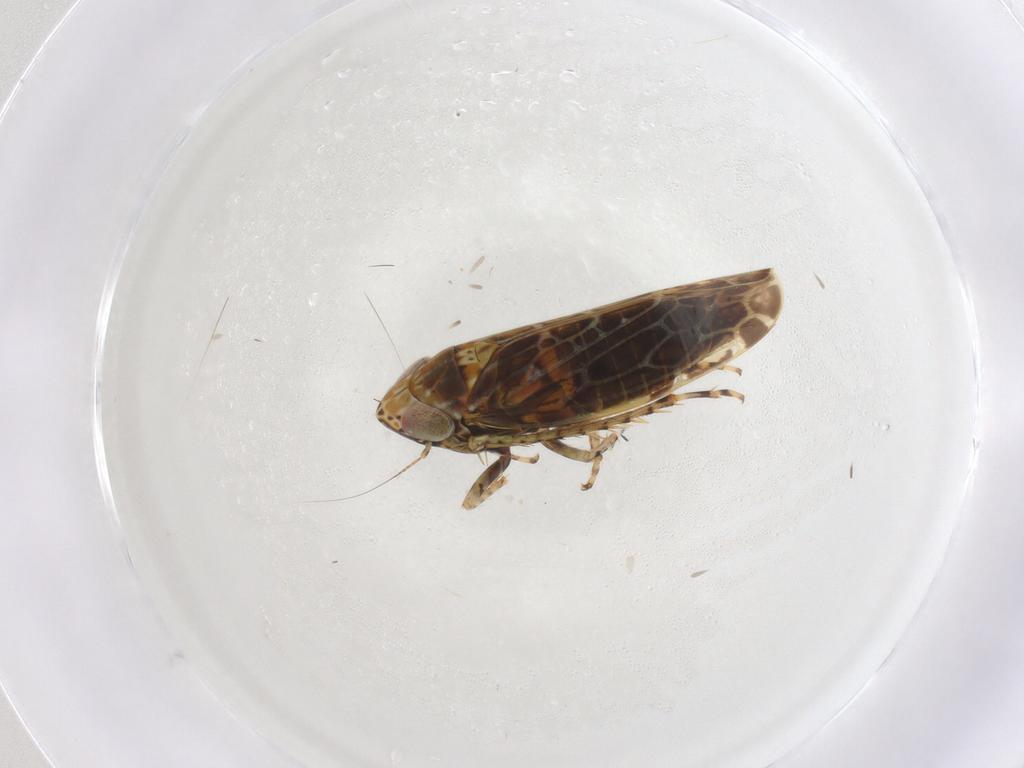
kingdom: Animalia
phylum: Arthropoda
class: Insecta
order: Hemiptera
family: Cicadellidae
